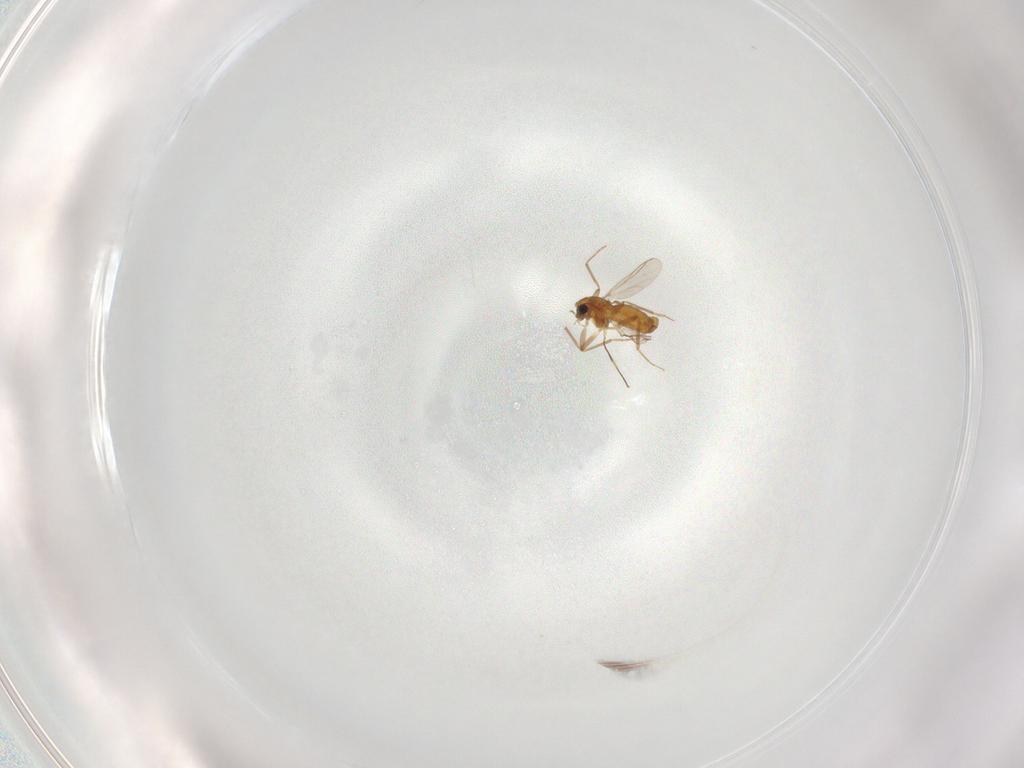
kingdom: Animalia
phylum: Arthropoda
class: Insecta
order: Diptera
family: Chironomidae
